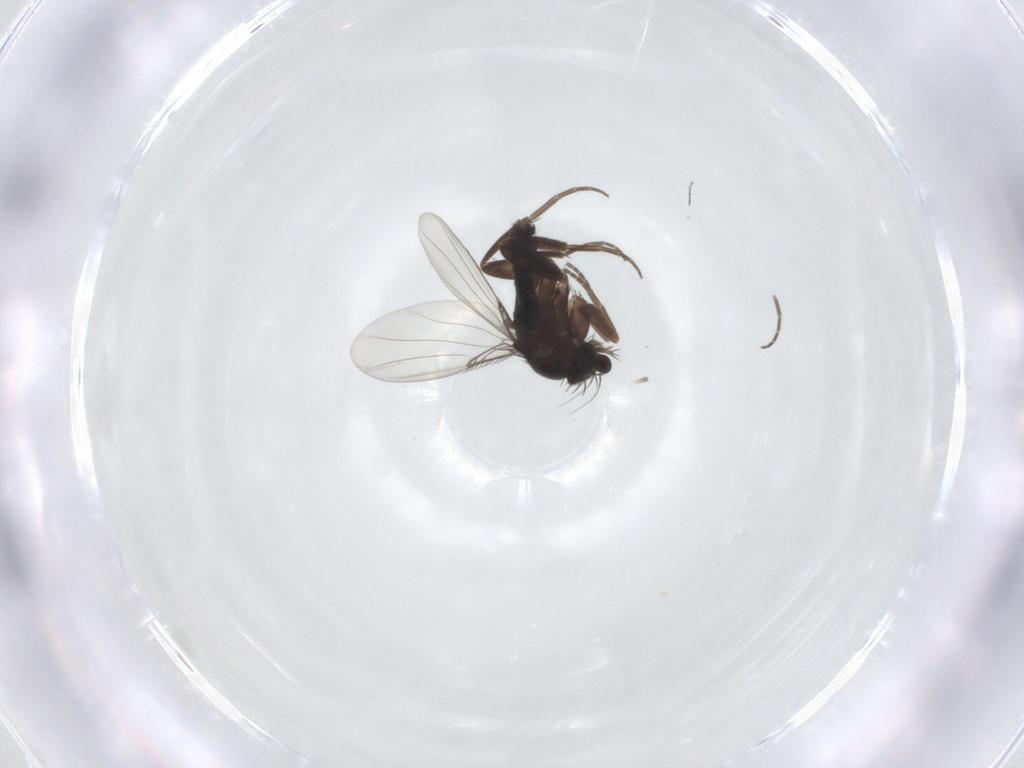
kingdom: Animalia
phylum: Arthropoda
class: Insecta
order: Diptera
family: Phoridae
